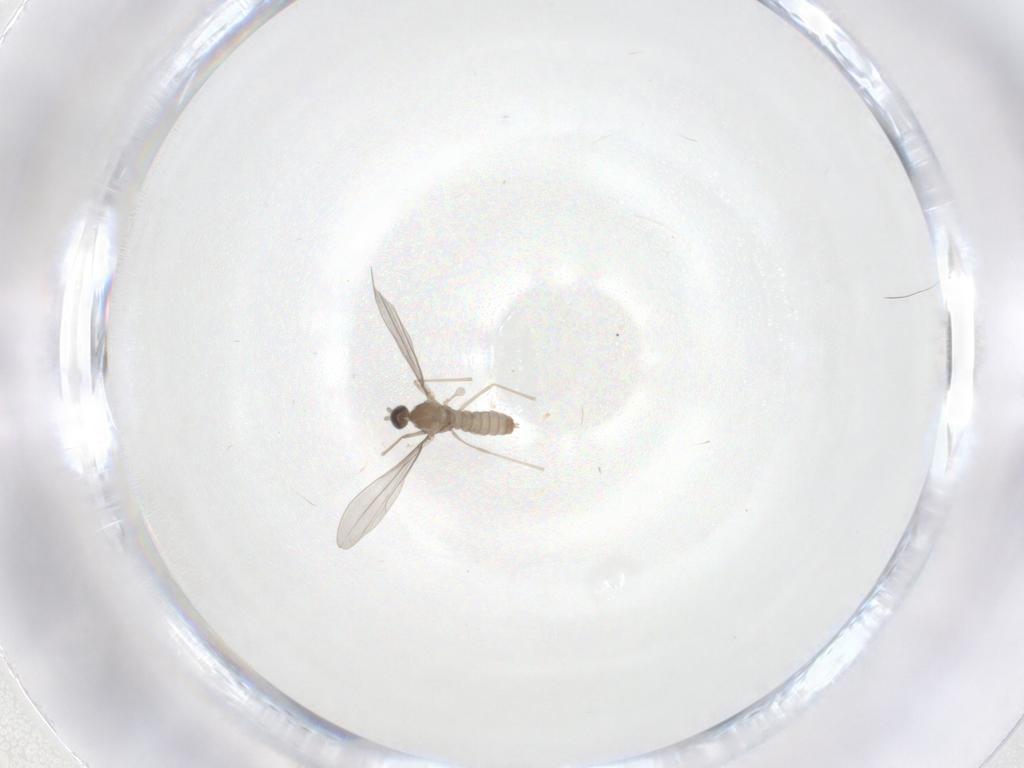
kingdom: Animalia
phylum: Arthropoda
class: Insecta
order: Diptera
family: Cecidomyiidae
